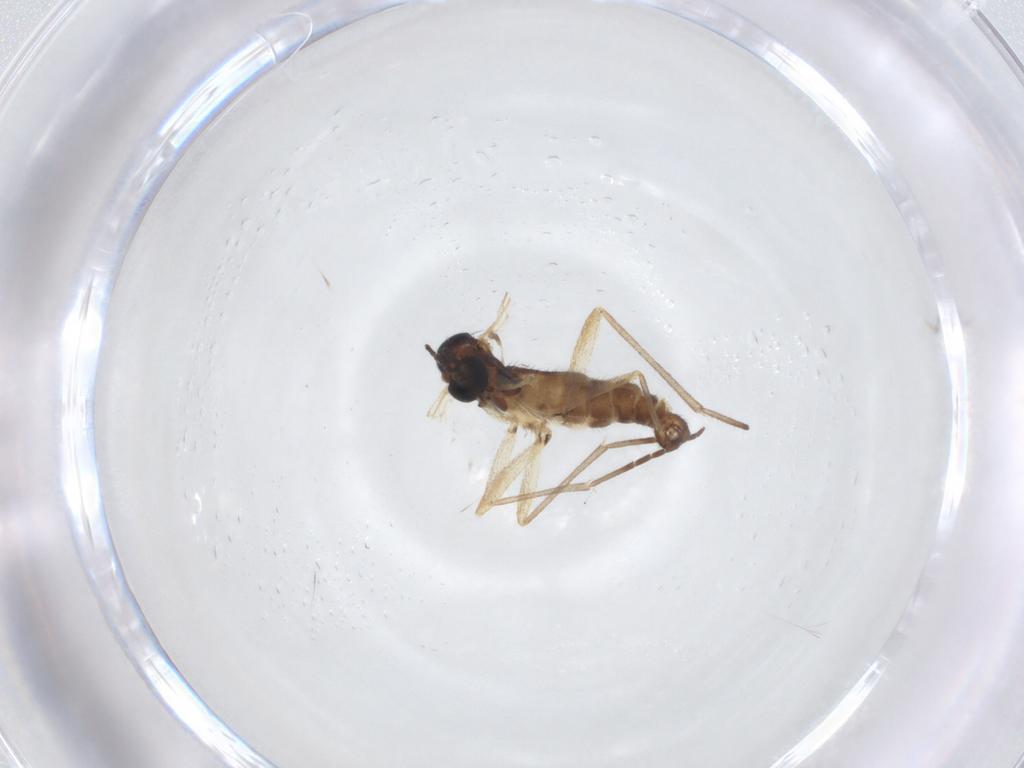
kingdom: Animalia
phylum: Arthropoda
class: Insecta
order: Diptera
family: Sciaridae
